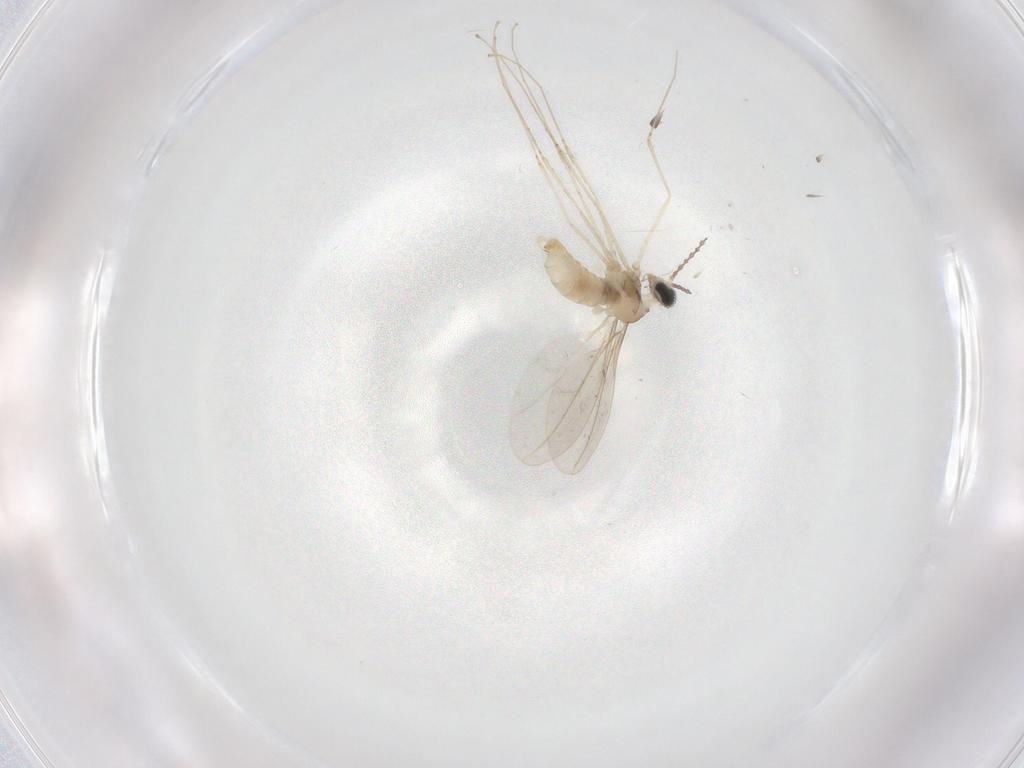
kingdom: Animalia
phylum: Arthropoda
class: Insecta
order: Diptera
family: Cecidomyiidae
